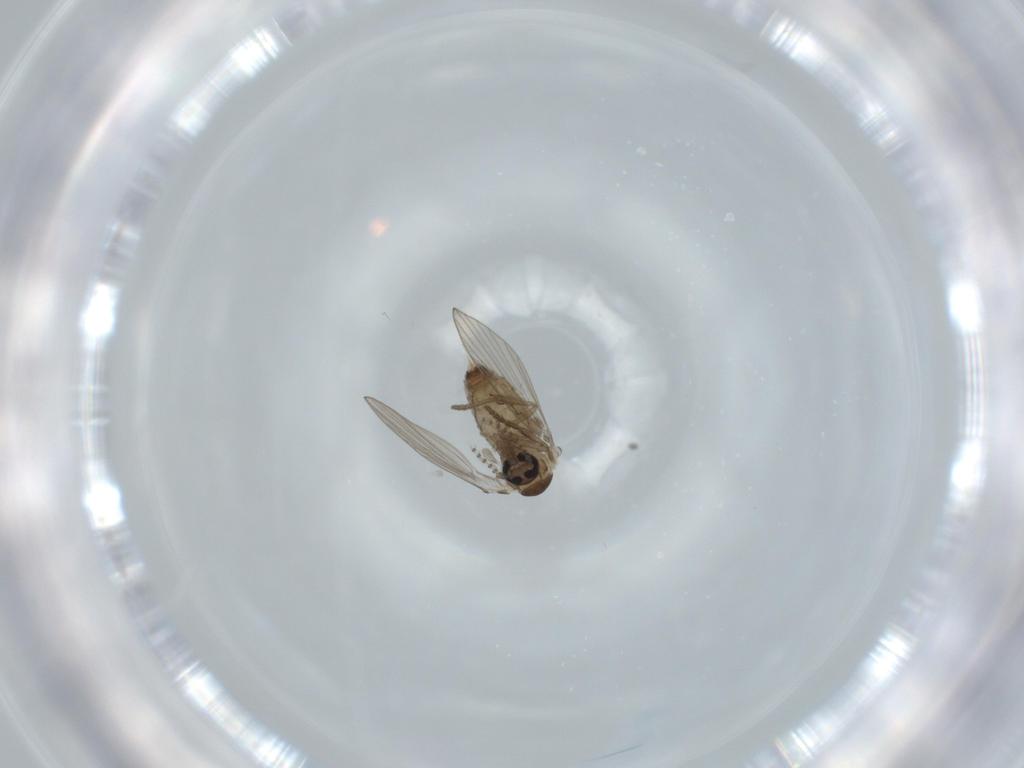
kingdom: Animalia
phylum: Arthropoda
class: Insecta
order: Diptera
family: Psychodidae
